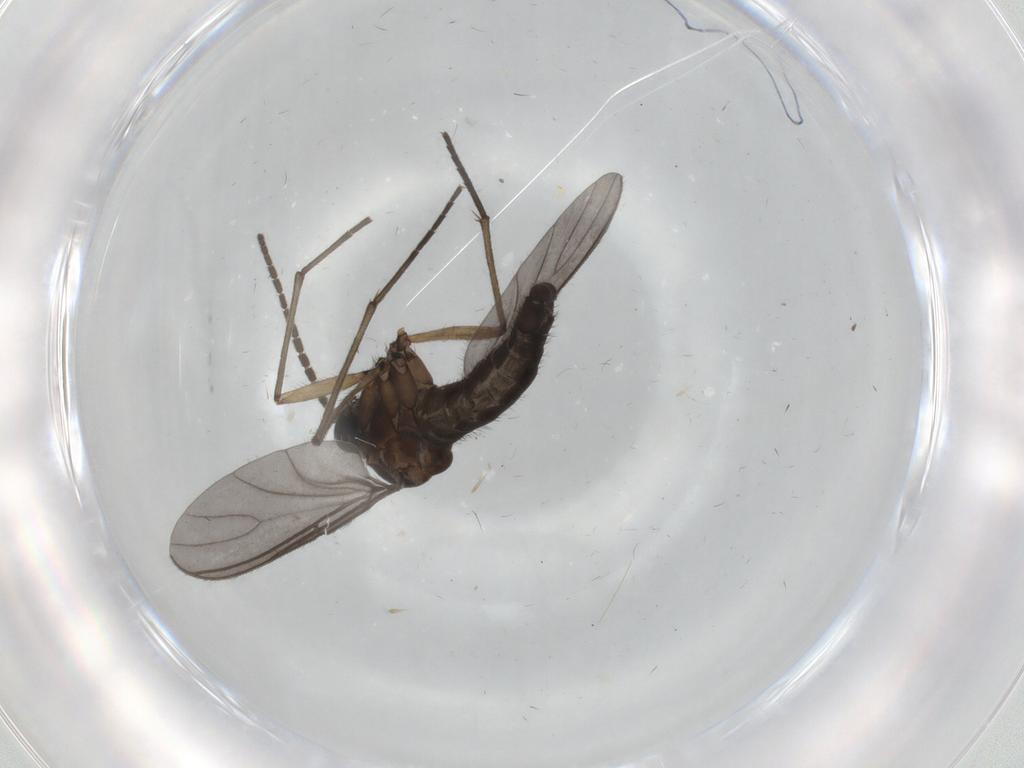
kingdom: Animalia
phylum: Arthropoda
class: Insecta
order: Diptera
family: Sciaridae
